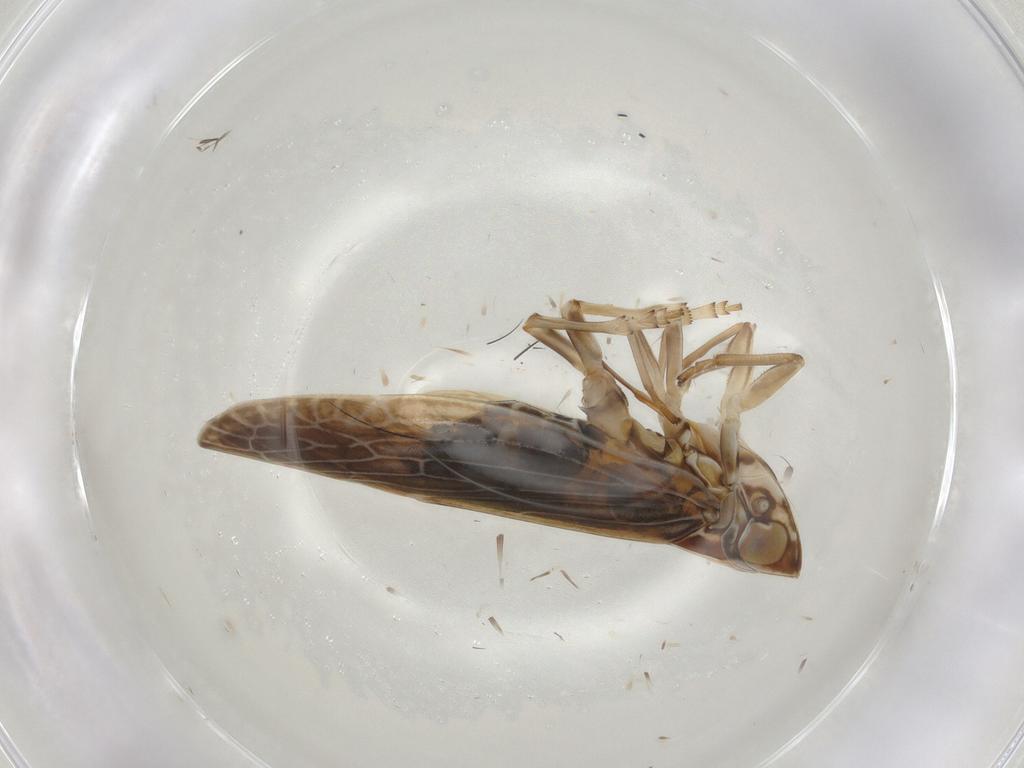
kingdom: Animalia
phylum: Arthropoda
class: Insecta
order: Hemiptera
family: Achilidae
